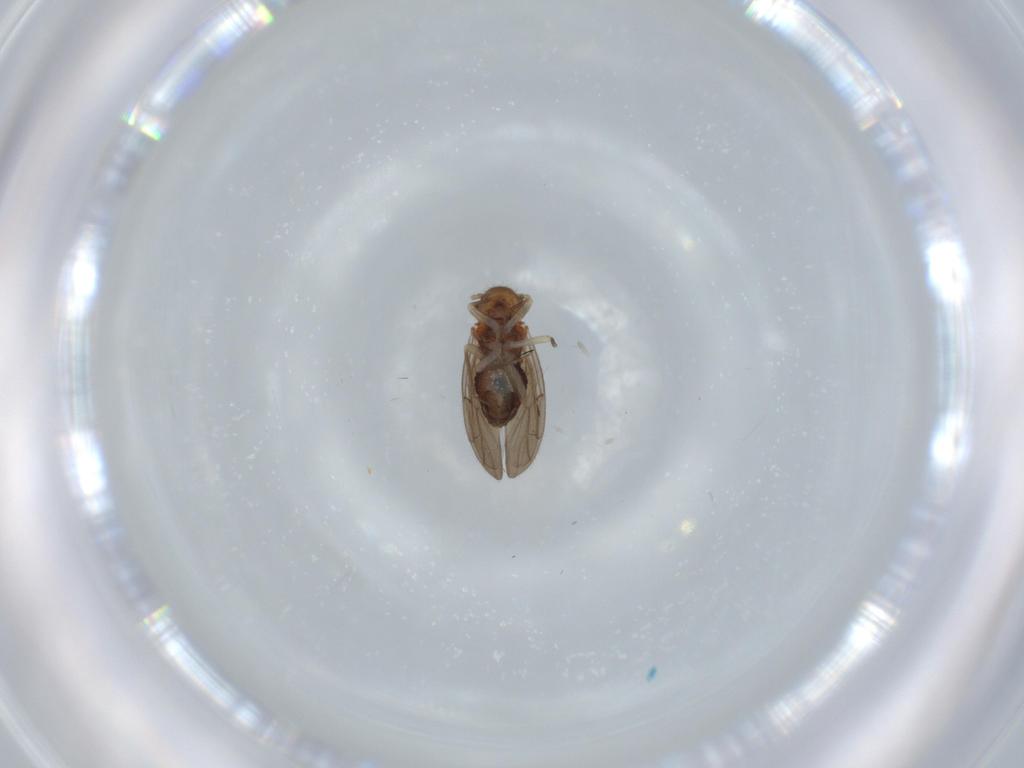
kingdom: Animalia
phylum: Arthropoda
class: Insecta
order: Psocodea
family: Ectopsocidae
